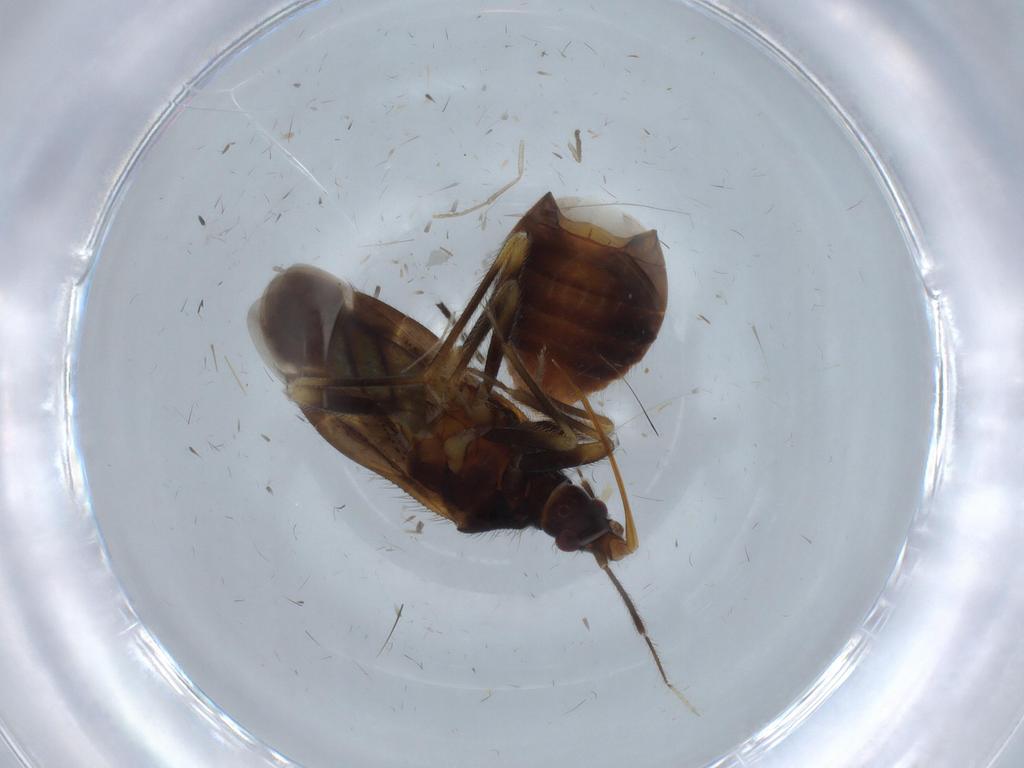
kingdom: Animalia
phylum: Arthropoda
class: Insecta
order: Hemiptera
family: Anthocoridae
